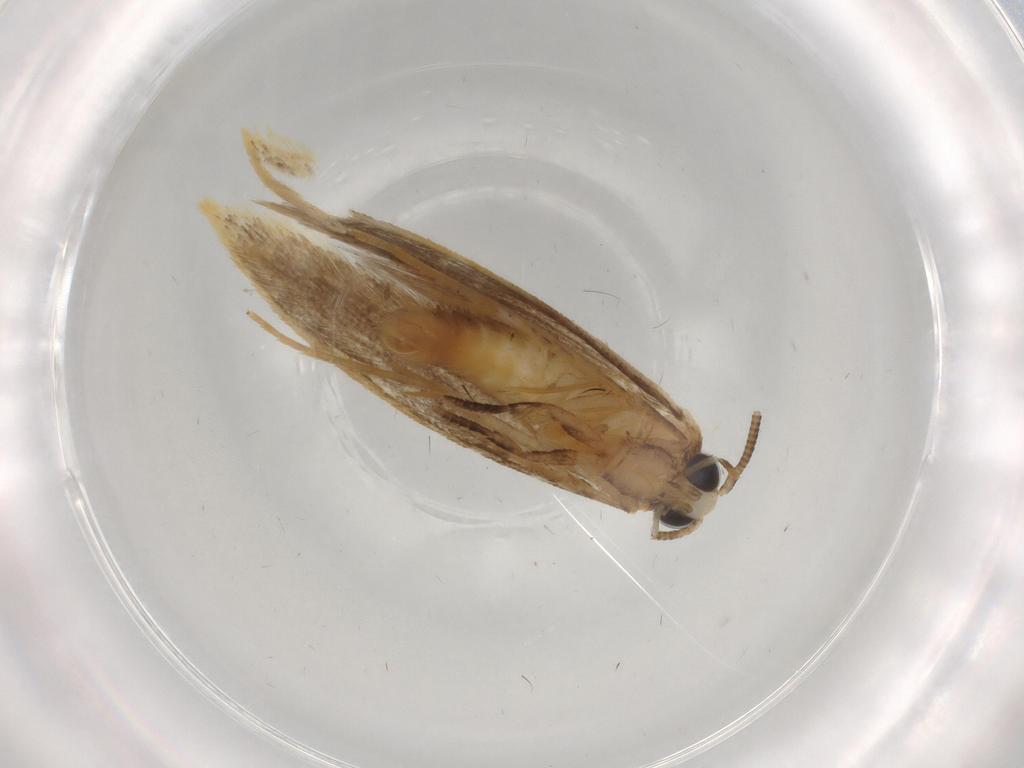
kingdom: Animalia
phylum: Arthropoda
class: Insecta
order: Lepidoptera
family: Tineidae
